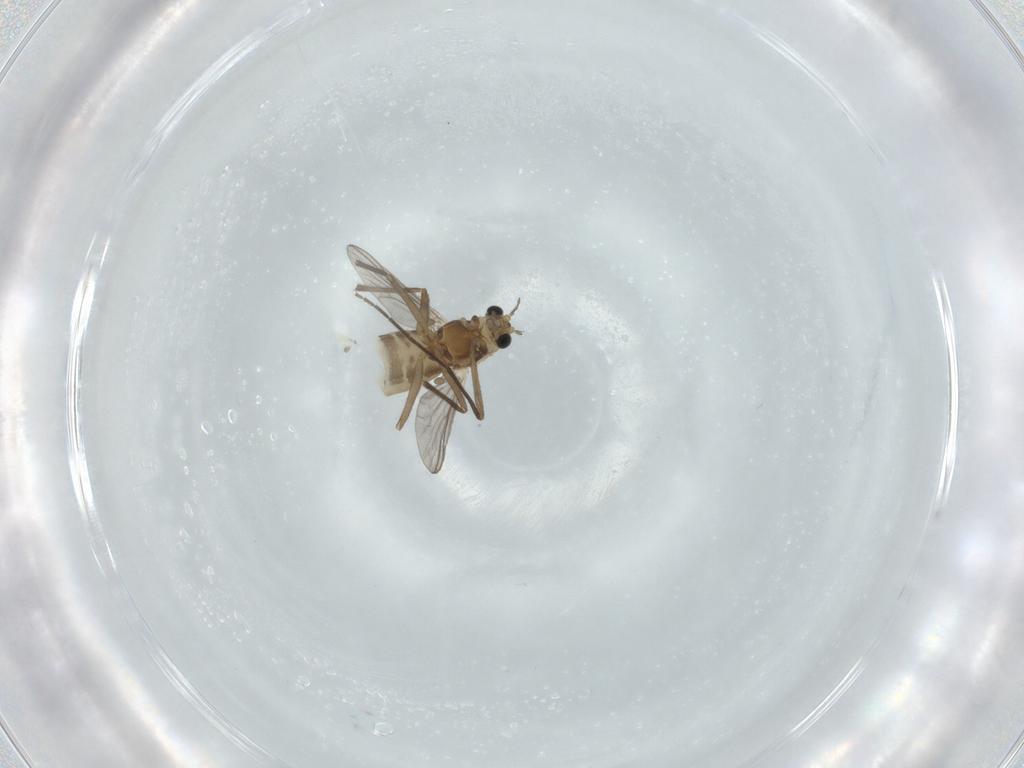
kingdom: Animalia
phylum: Arthropoda
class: Insecta
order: Diptera
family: Chironomidae
